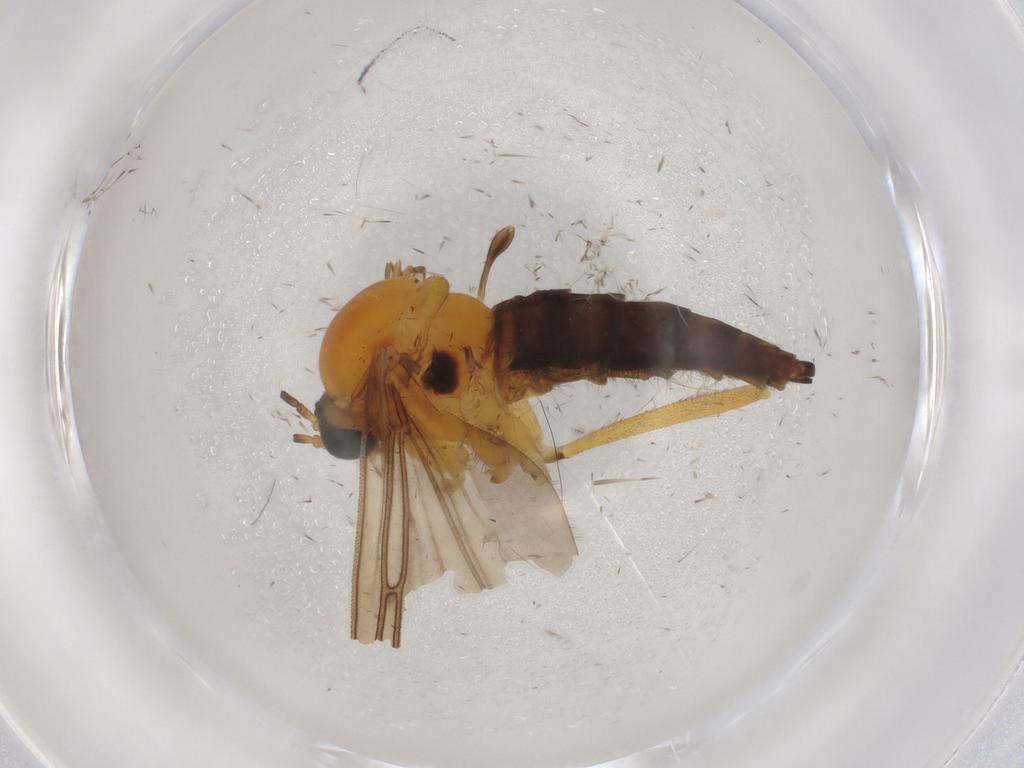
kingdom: Animalia
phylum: Arthropoda
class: Insecta
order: Diptera
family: Sciaridae
